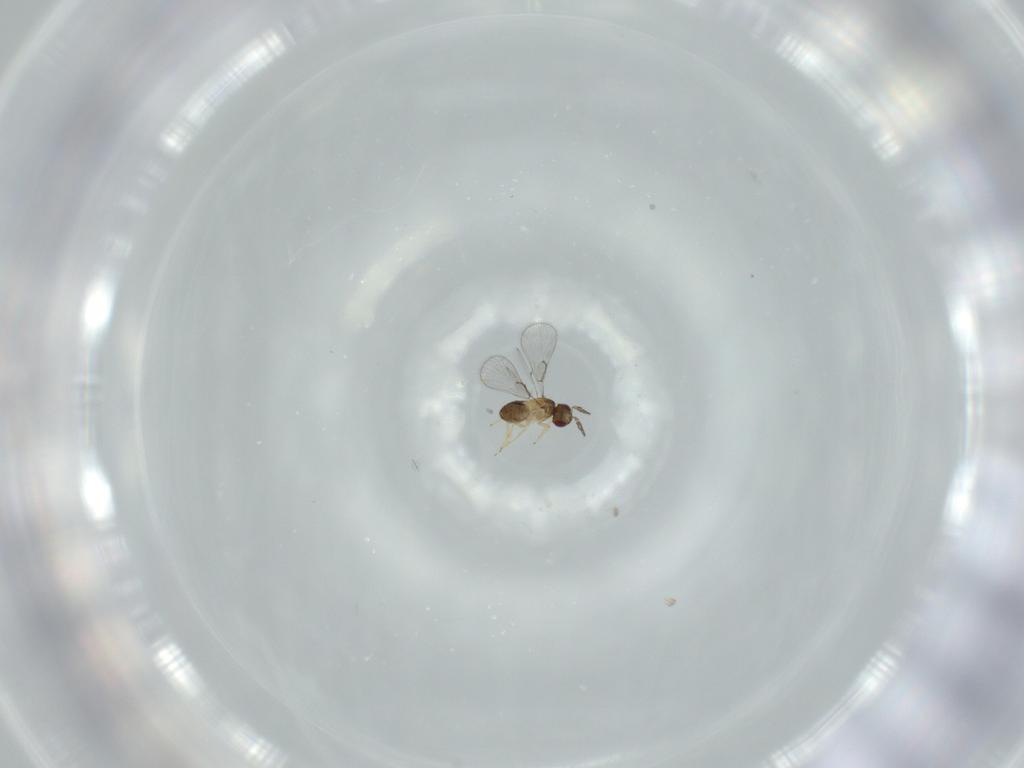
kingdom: Animalia
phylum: Arthropoda
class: Insecta
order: Hymenoptera
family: Trichogrammatidae
